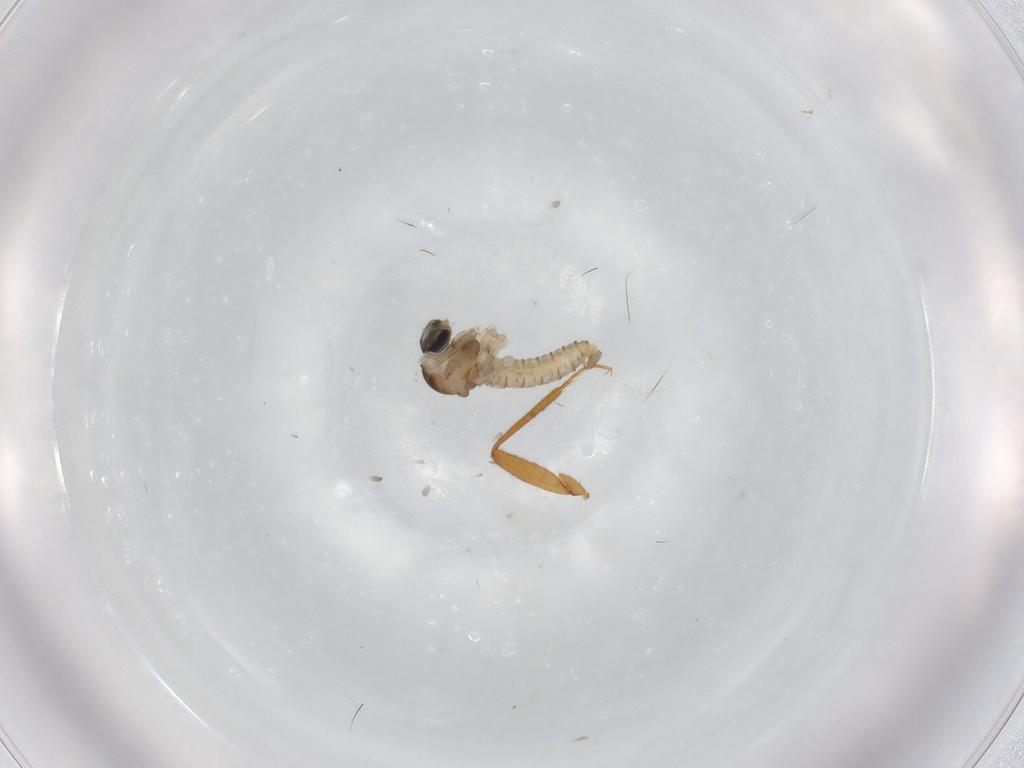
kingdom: Animalia
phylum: Arthropoda
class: Insecta
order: Diptera
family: Cecidomyiidae
